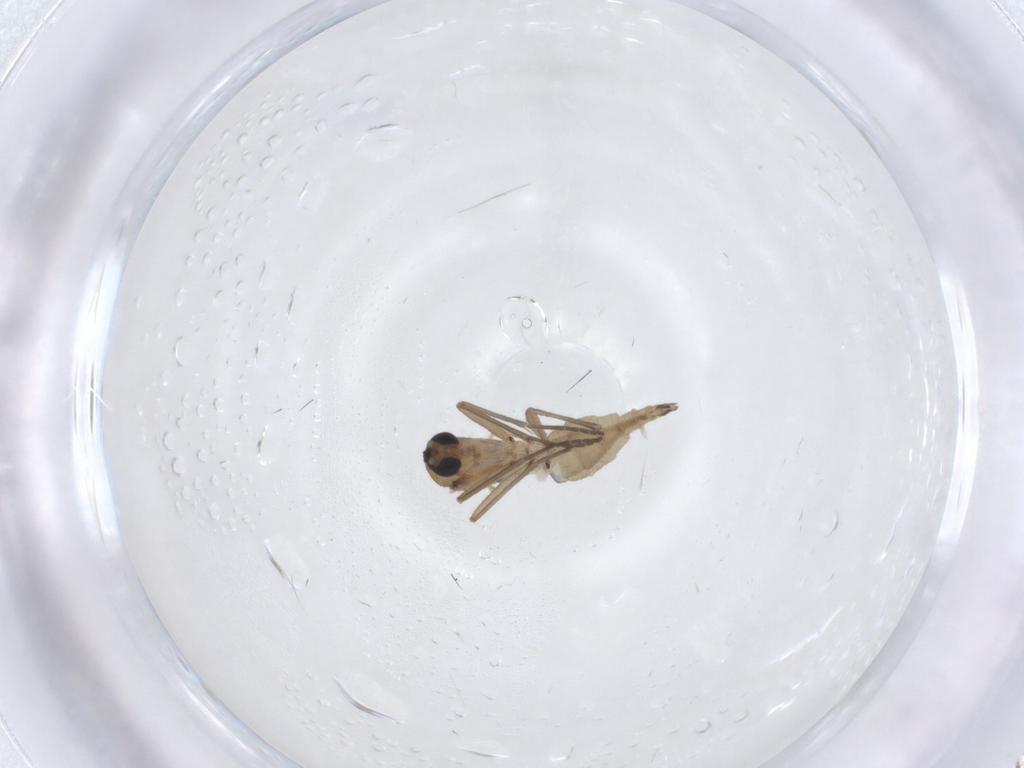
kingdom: Animalia
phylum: Arthropoda
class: Insecta
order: Diptera
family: Sciaridae
